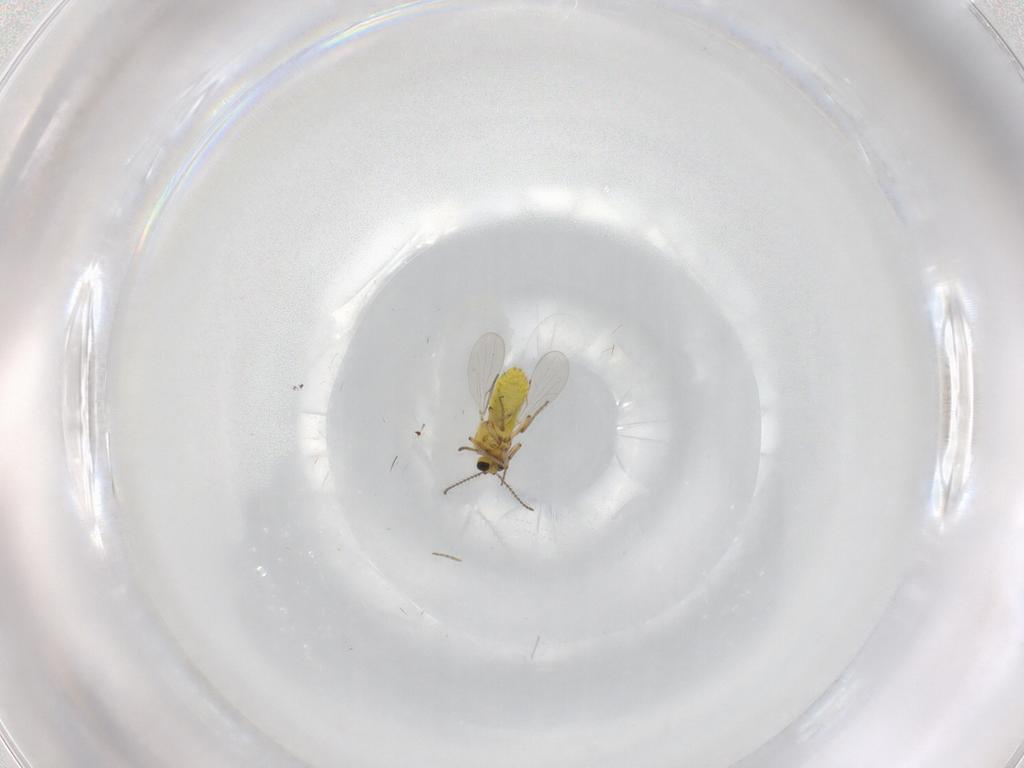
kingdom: Animalia
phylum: Arthropoda
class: Insecta
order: Diptera
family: Ceratopogonidae
